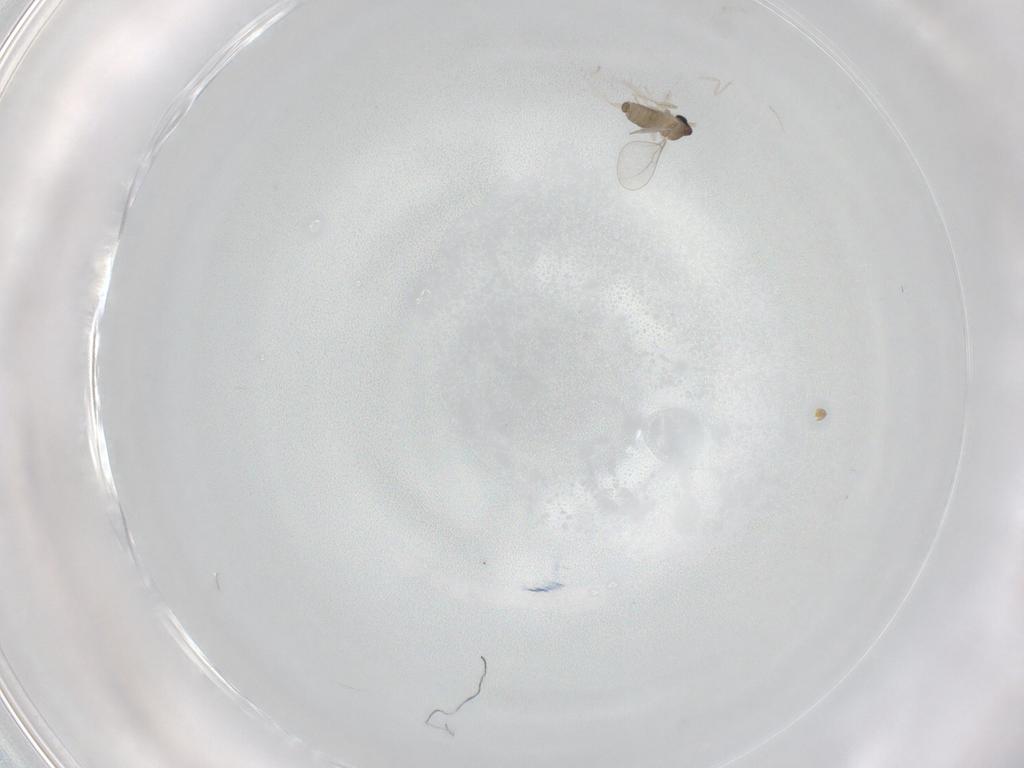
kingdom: Animalia
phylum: Arthropoda
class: Insecta
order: Diptera
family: Cecidomyiidae
